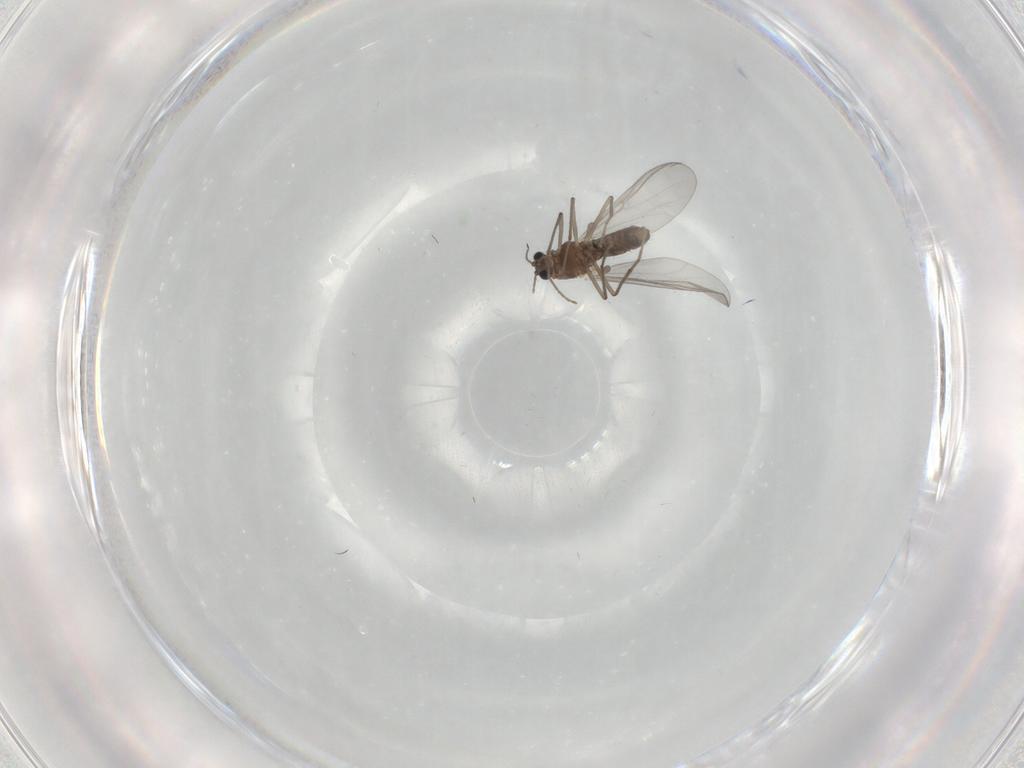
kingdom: Animalia
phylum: Arthropoda
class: Insecta
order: Diptera
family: Chironomidae
